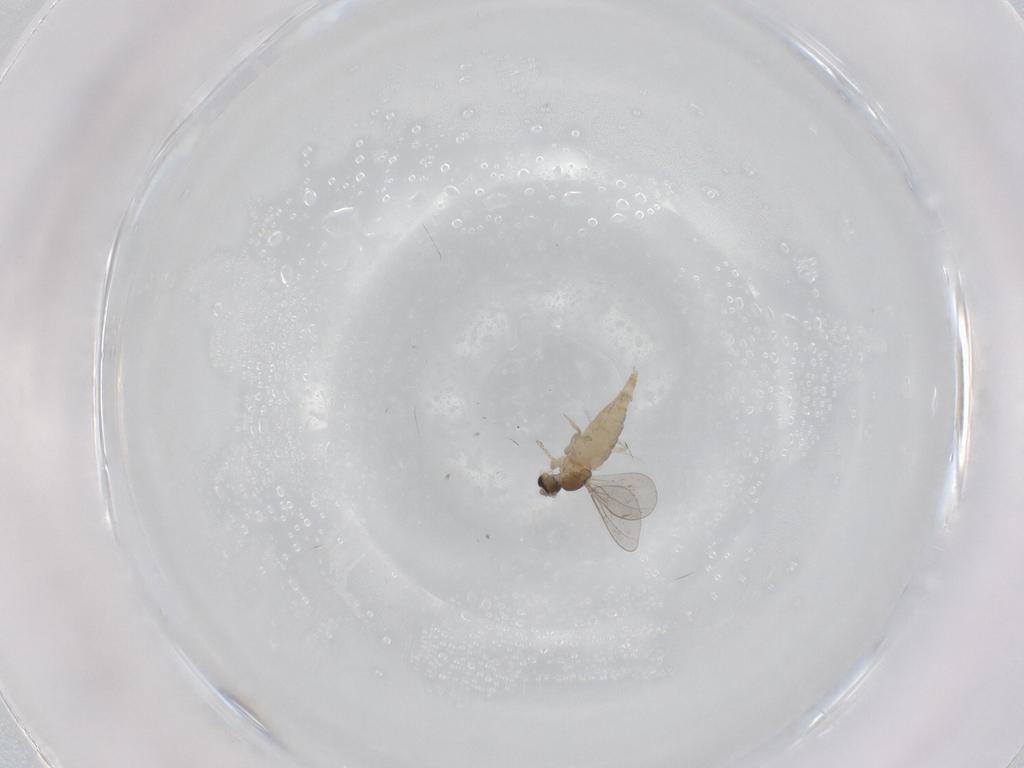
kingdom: Animalia
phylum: Arthropoda
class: Insecta
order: Diptera
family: Cecidomyiidae
